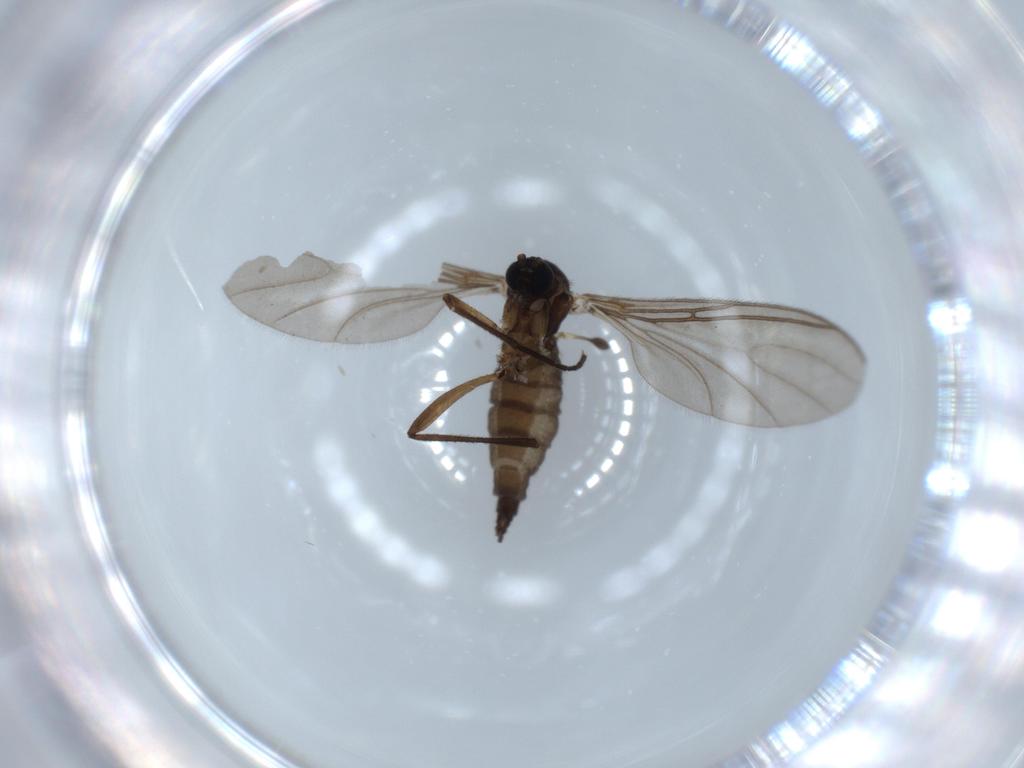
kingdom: Animalia
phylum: Arthropoda
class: Insecta
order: Diptera
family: Sciaridae
